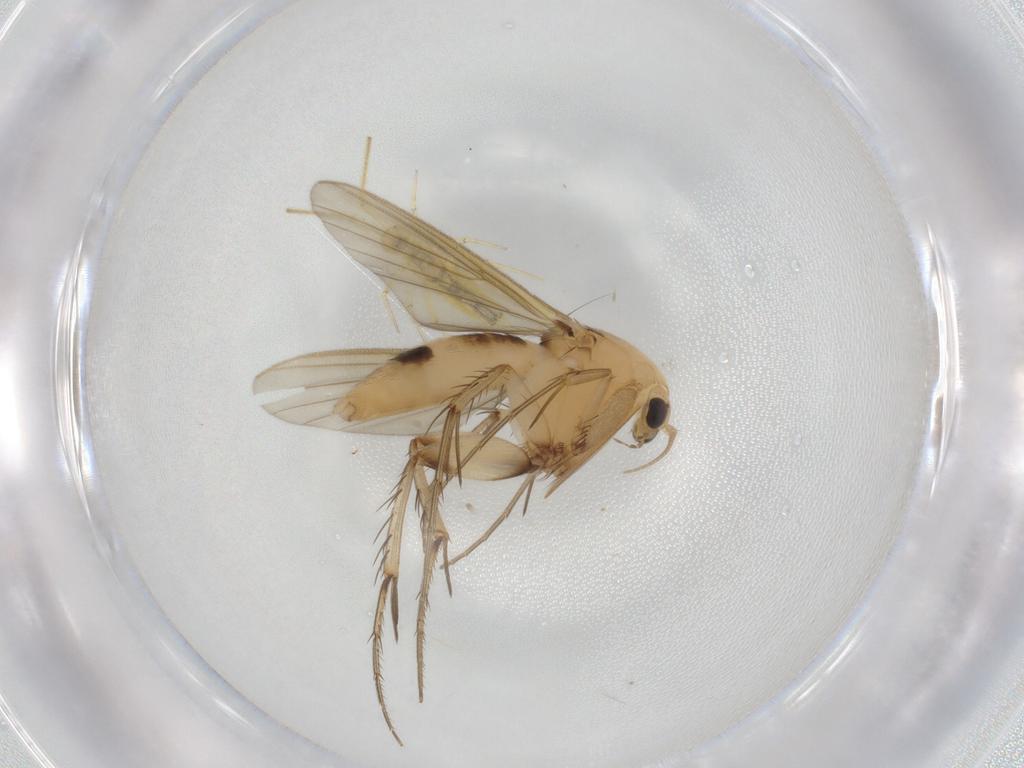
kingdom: Animalia
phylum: Arthropoda
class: Insecta
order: Diptera
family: Mycetophilidae
